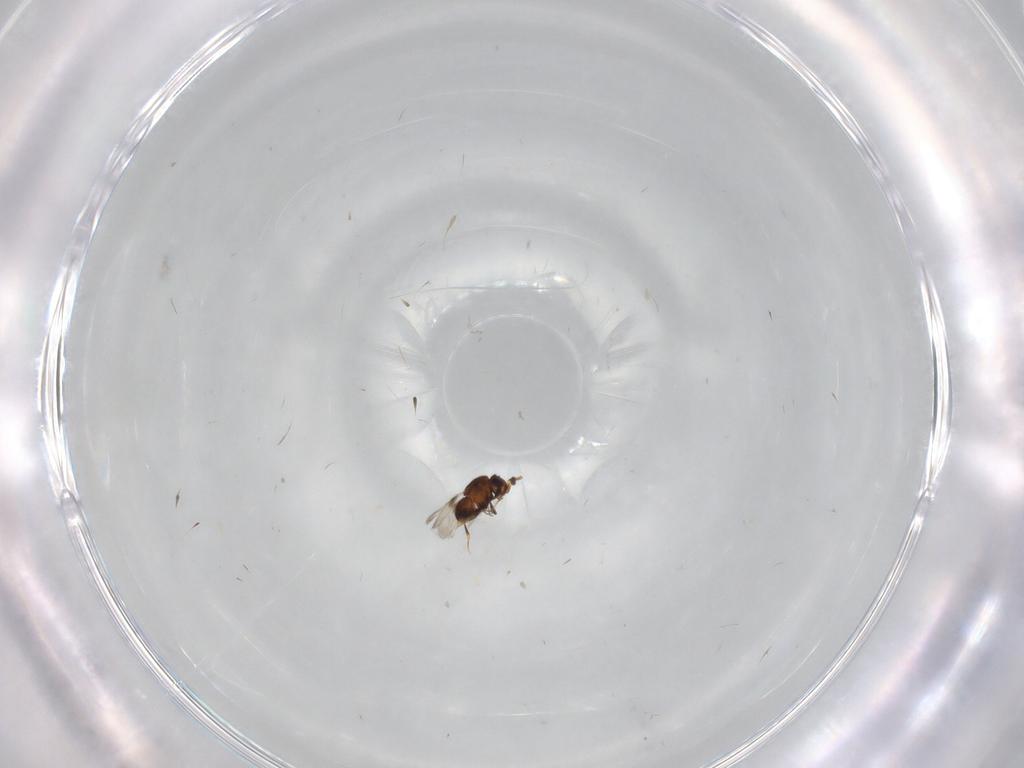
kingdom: Animalia
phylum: Arthropoda
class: Insecta
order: Hymenoptera
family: Ceraphronidae
